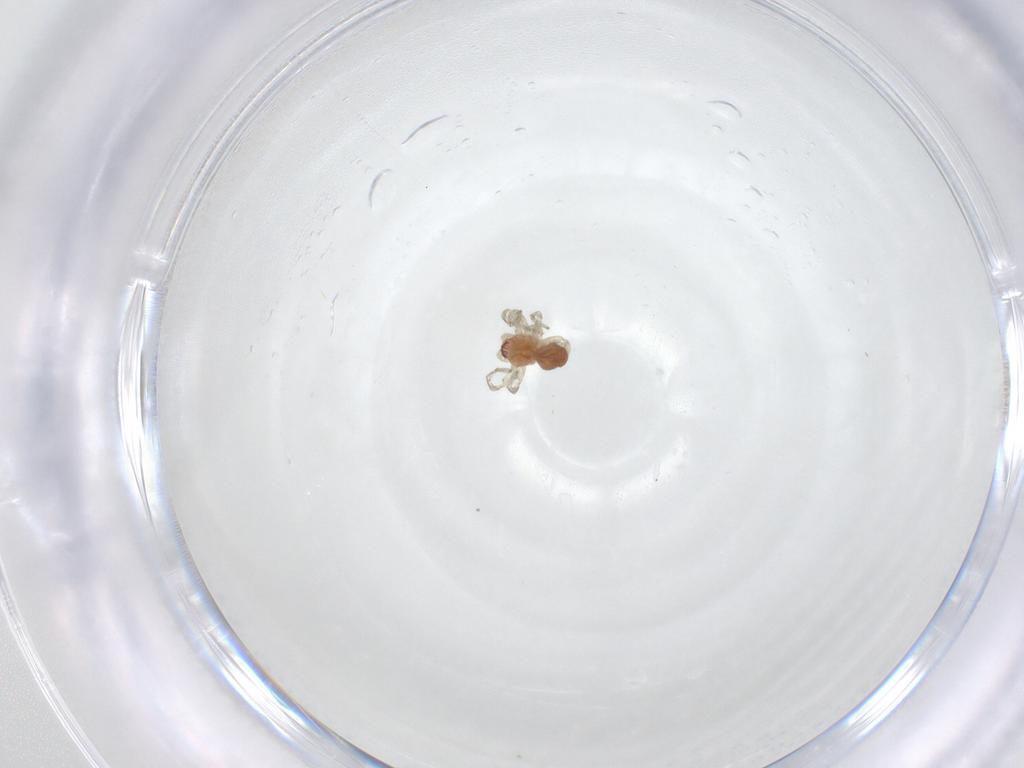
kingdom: Animalia
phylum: Arthropoda
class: Arachnida
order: Araneae
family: Dictynidae
